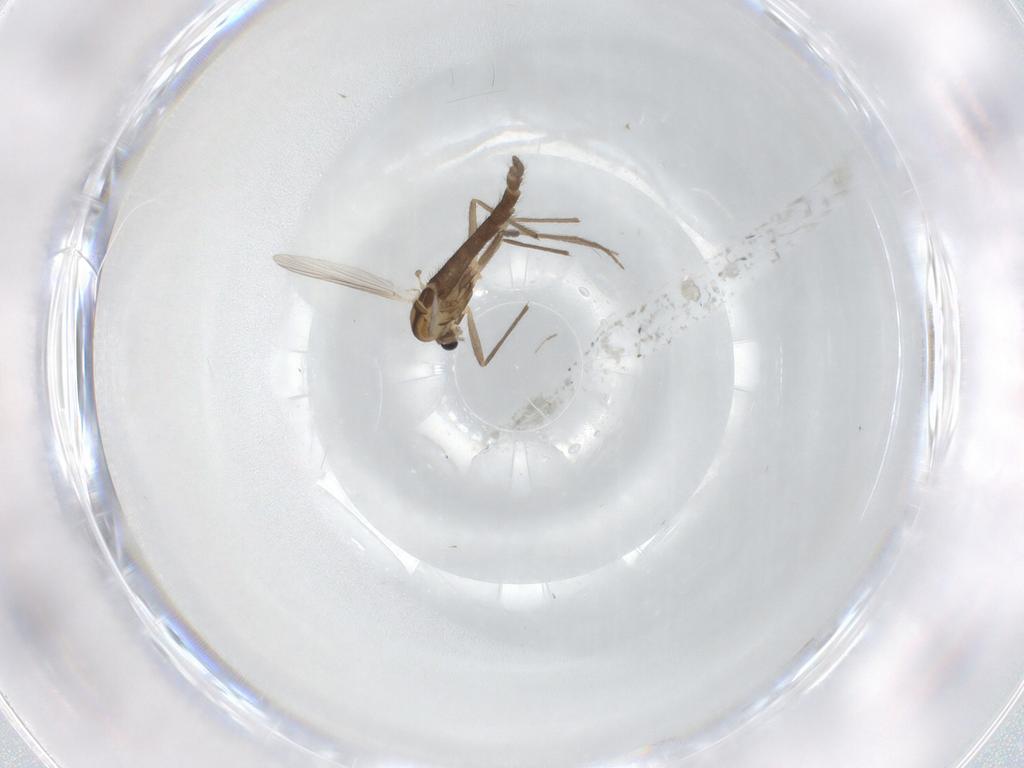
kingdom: Animalia
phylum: Arthropoda
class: Insecta
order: Diptera
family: Chironomidae
